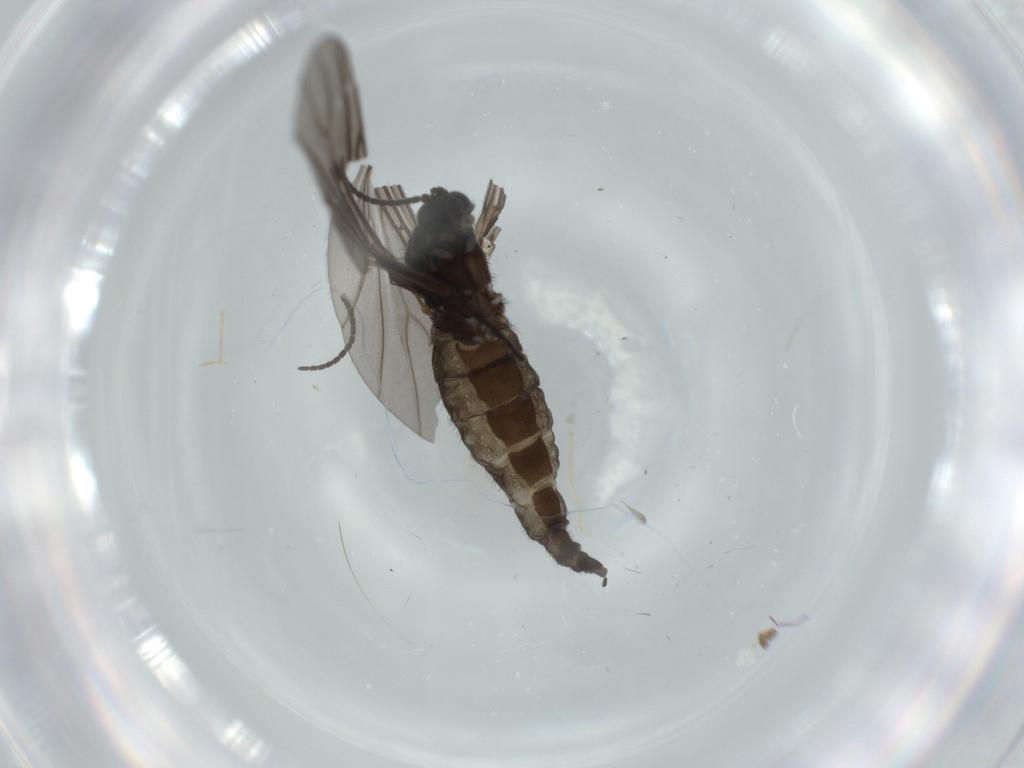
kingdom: Animalia
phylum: Arthropoda
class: Insecta
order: Diptera
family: Sciaridae
